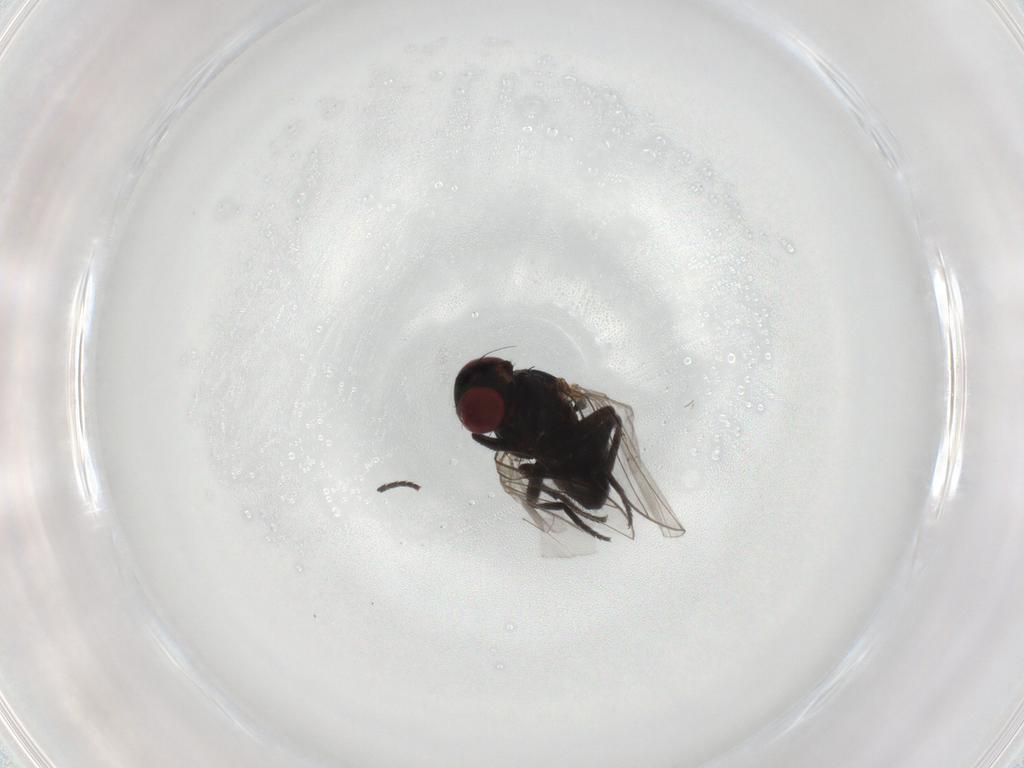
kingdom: Animalia
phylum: Arthropoda
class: Insecta
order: Diptera
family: Agromyzidae
